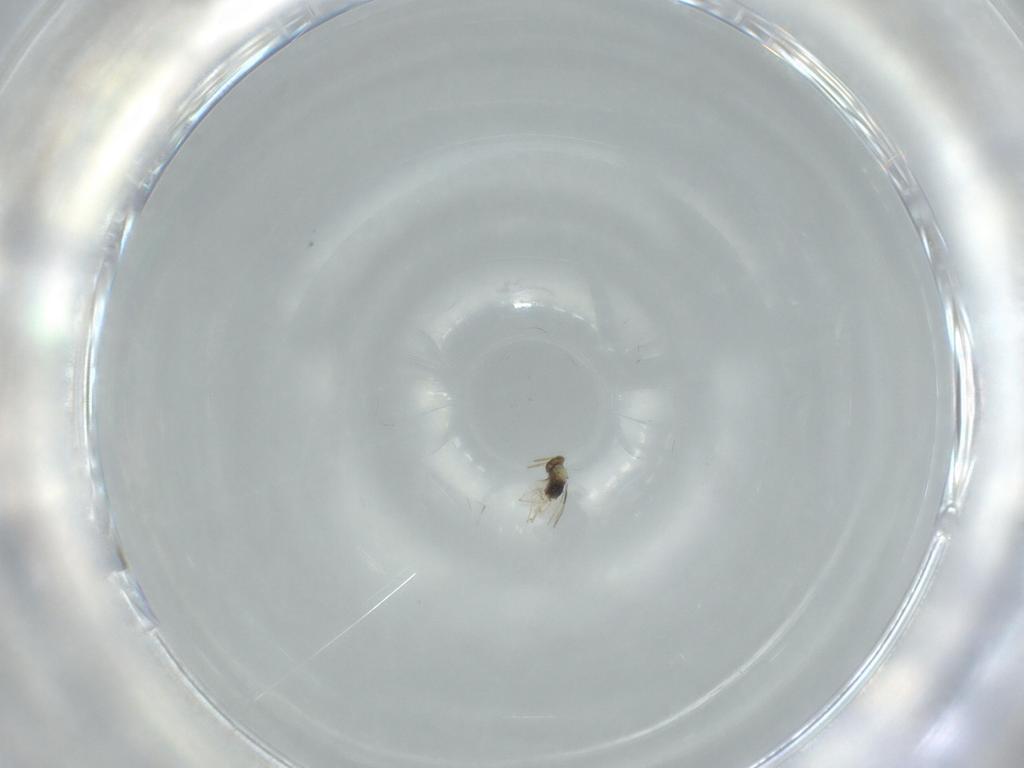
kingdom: Animalia
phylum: Arthropoda
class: Insecta
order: Hymenoptera
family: Aphelinidae
